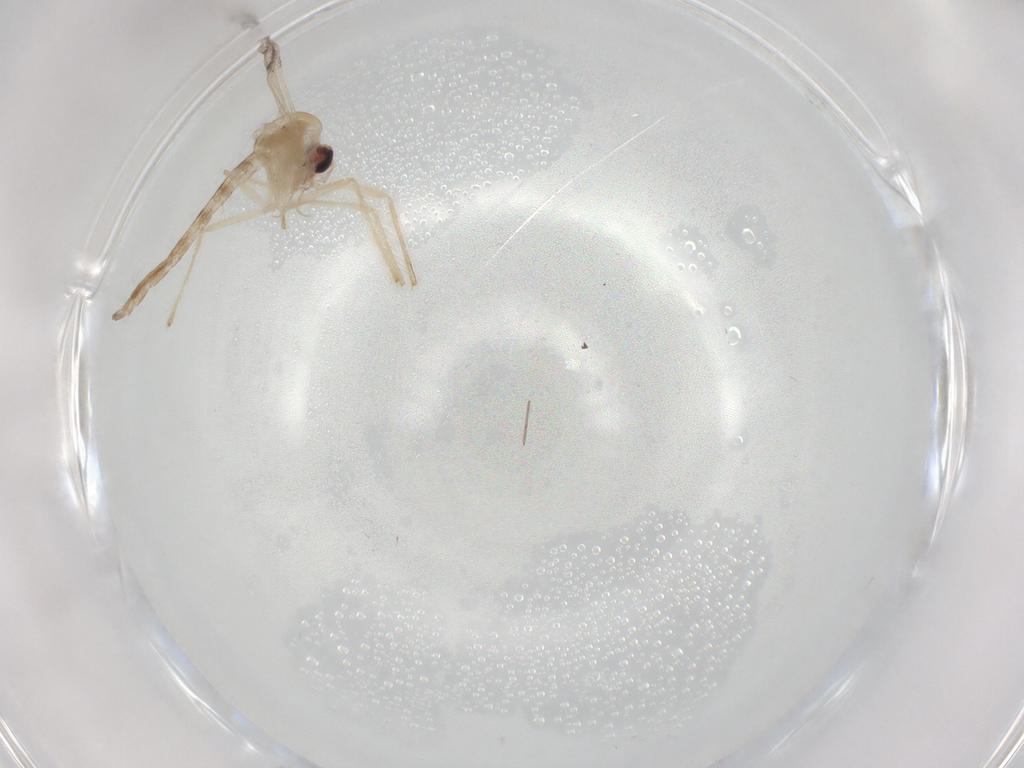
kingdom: Animalia
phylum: Arthropoda
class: Insecta
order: Diptera
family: Chironomidae
